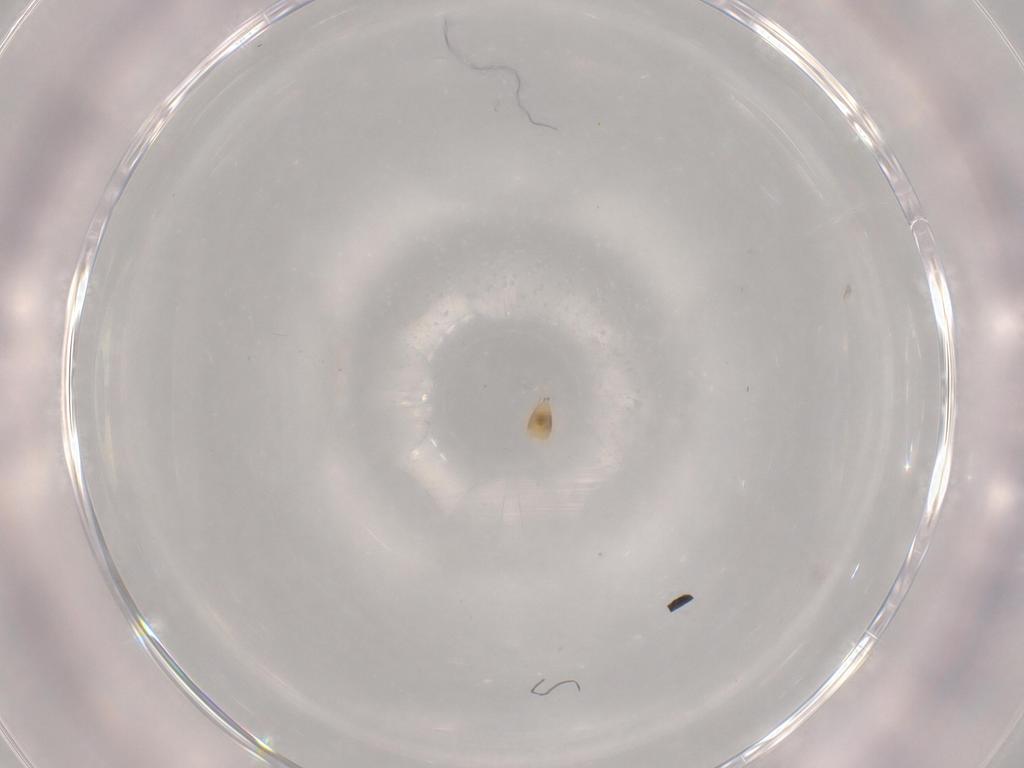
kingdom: Animalia
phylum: Arthropoda
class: Insecta
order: Hymenoptera
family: Mymaridae
